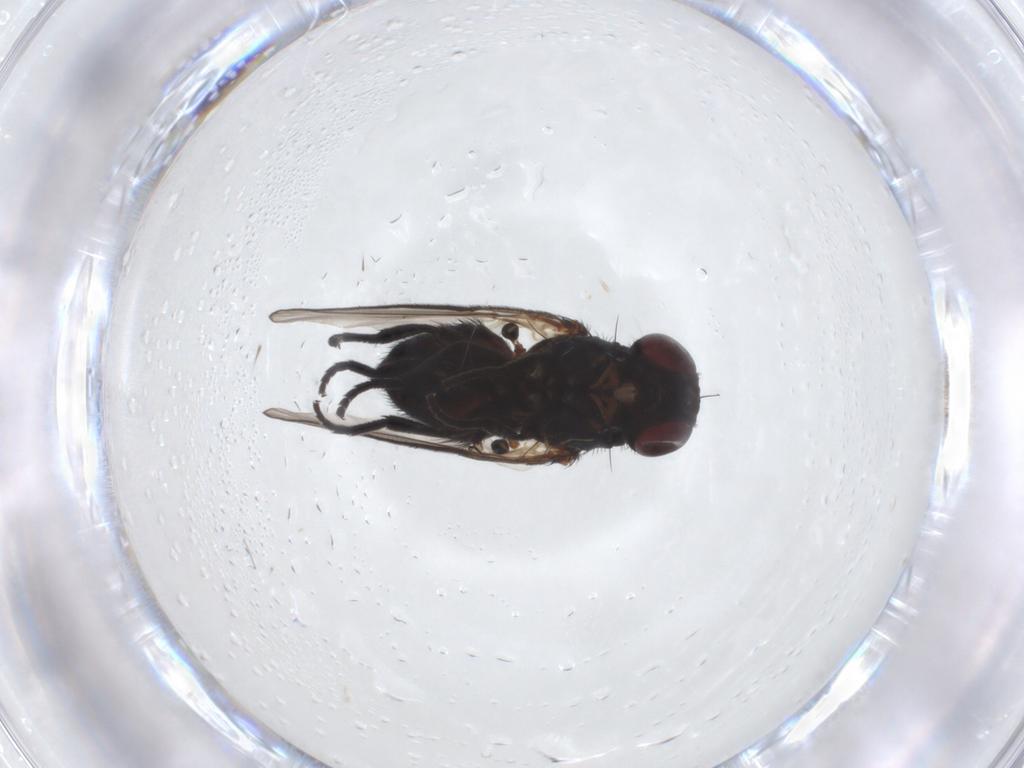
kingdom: Animalia
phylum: Arthropoda
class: Insecta
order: Diptera
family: Agromyzidae
